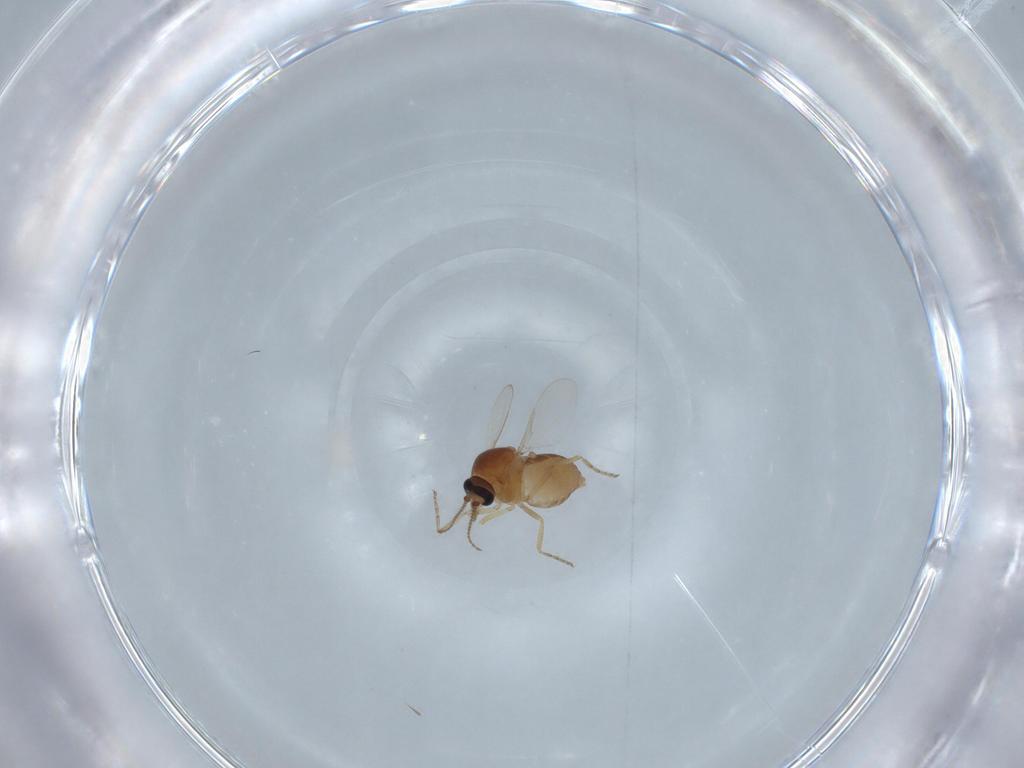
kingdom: Animalia
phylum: Arthropoda
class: Insecta
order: Diptera
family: Ceratopogonidae
